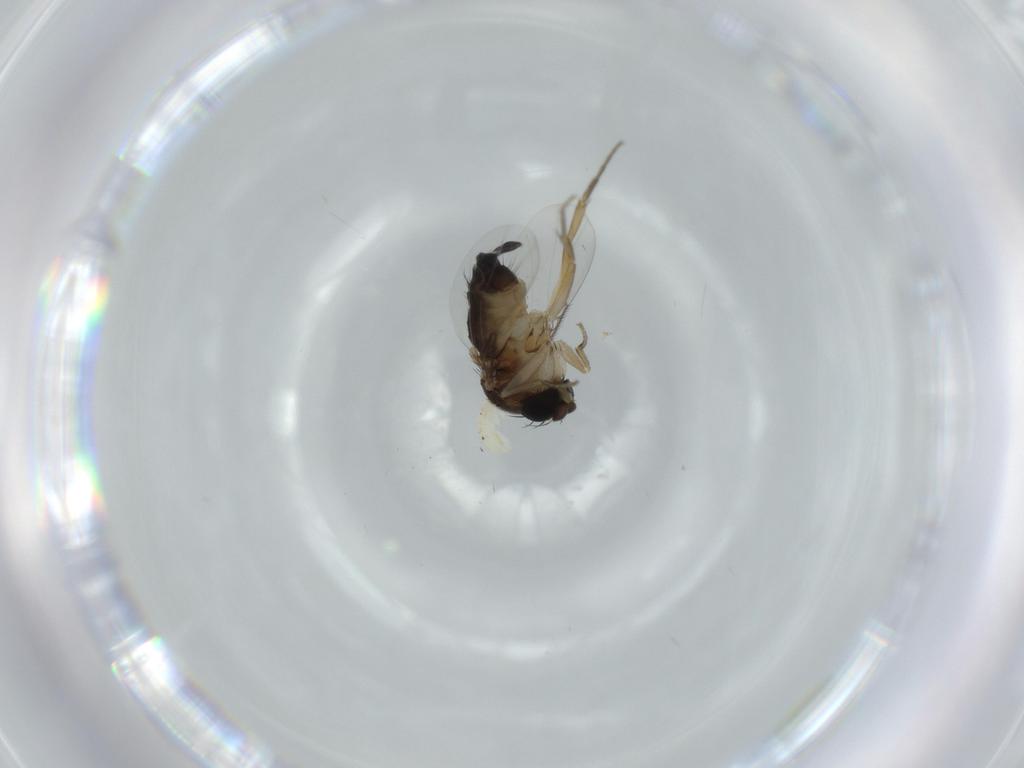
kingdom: Animalia
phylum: Arthropoda
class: Insecta
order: Diptera
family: Phoridae
